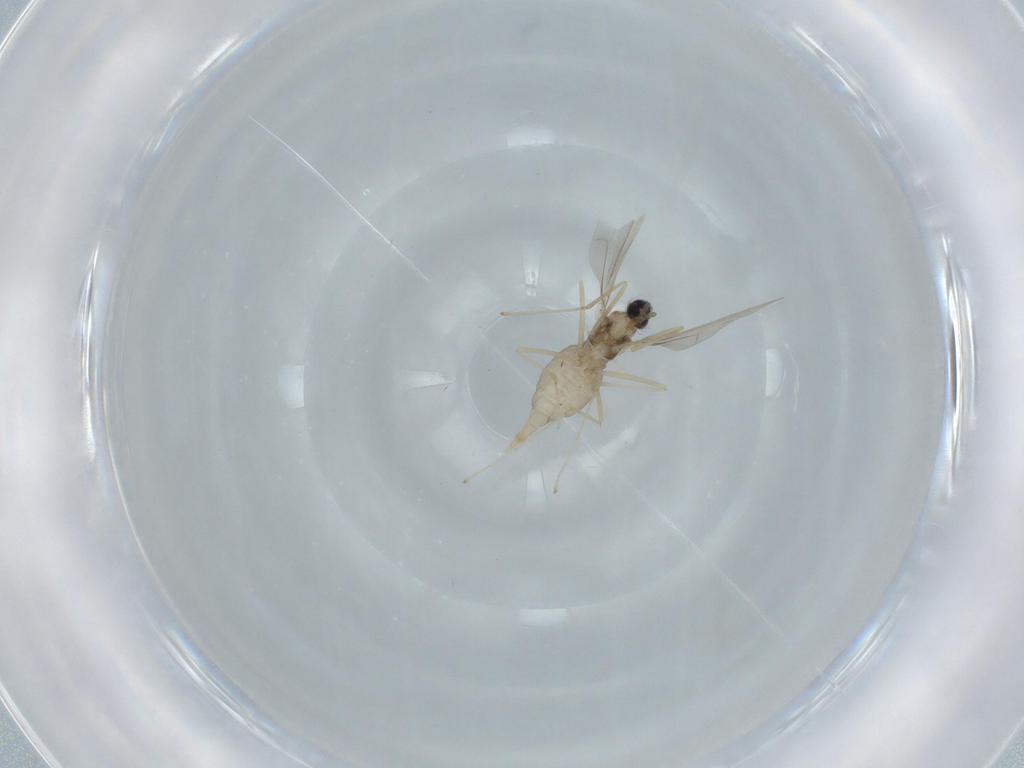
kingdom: Animalia
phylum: Arthropoda
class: Insecta
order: Diptera
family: Cecidomyiidae
